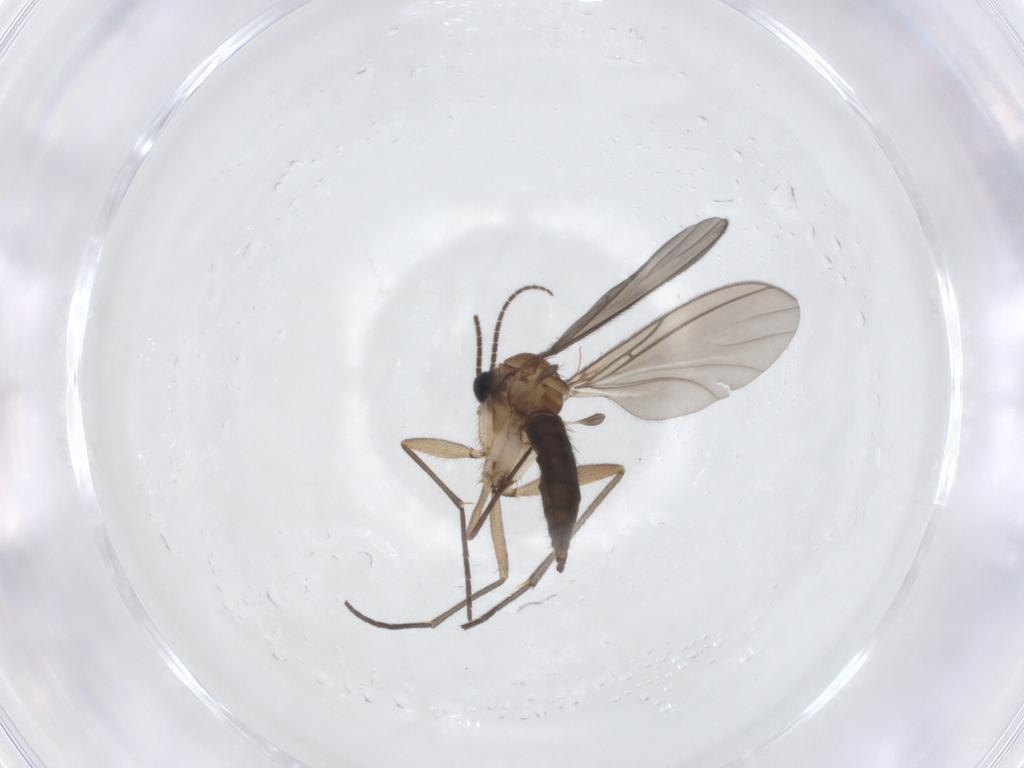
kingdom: Animalia
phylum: Arthropoda
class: Insecta
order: Diptera
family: Sciaridae
